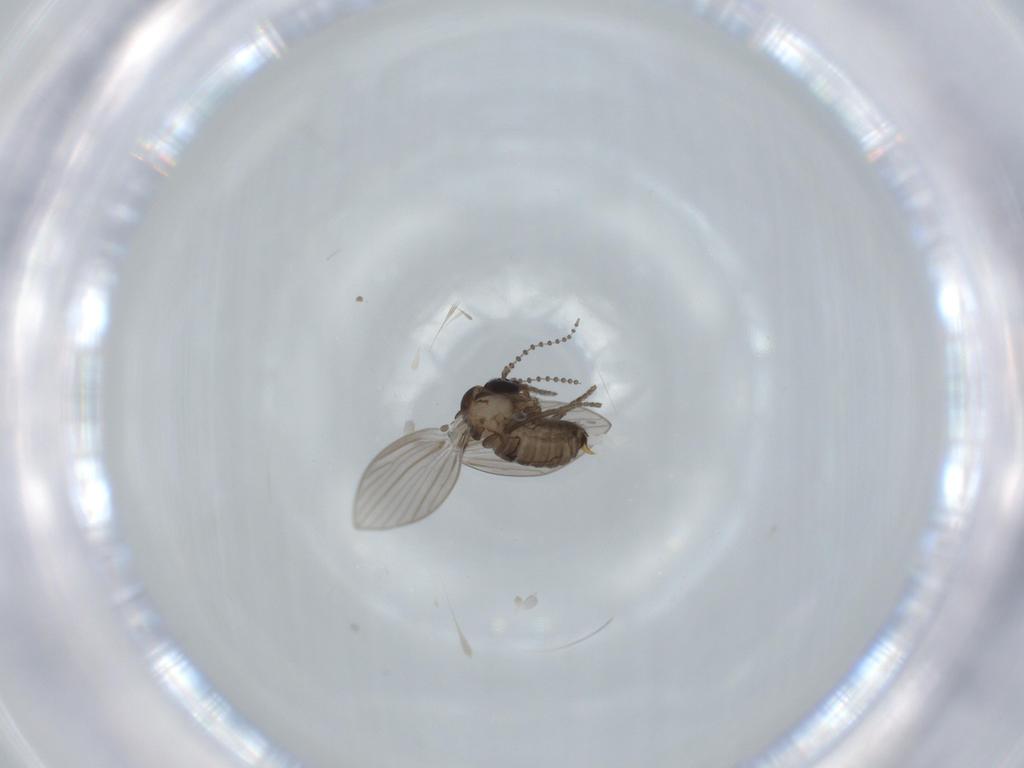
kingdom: Animalia
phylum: Arthropoda
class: Insecta
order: Diptera
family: Psychodidae
